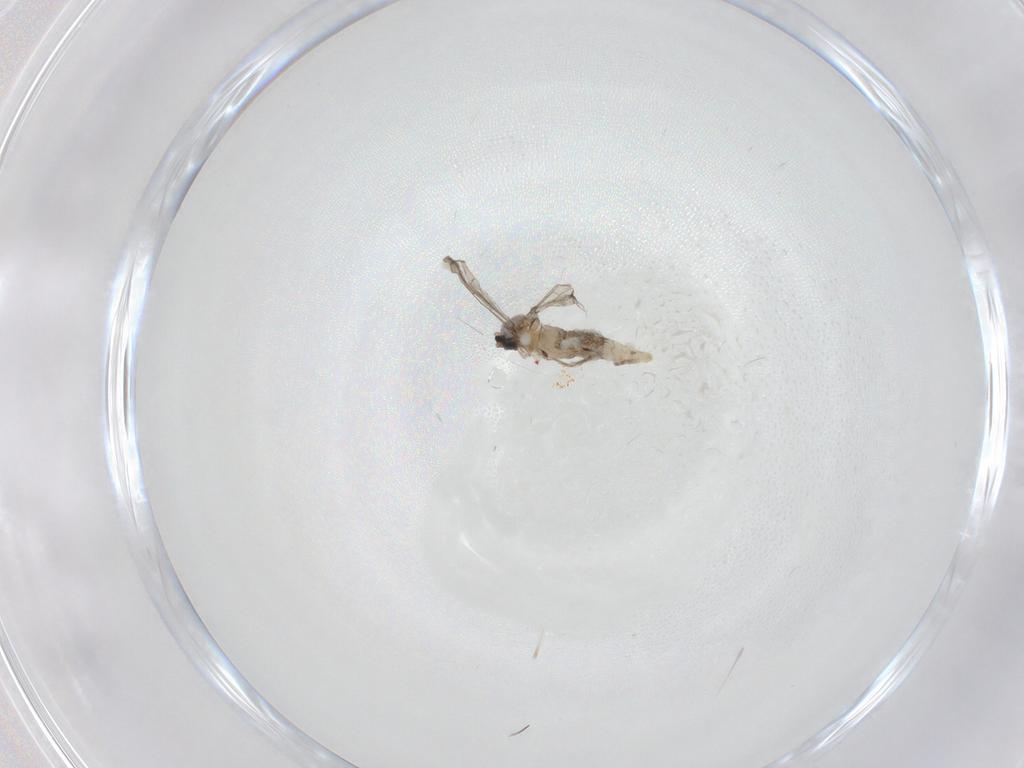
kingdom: Animalia
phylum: Arthropoda
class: Insecta
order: Diptera
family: Cecidomyiidae
